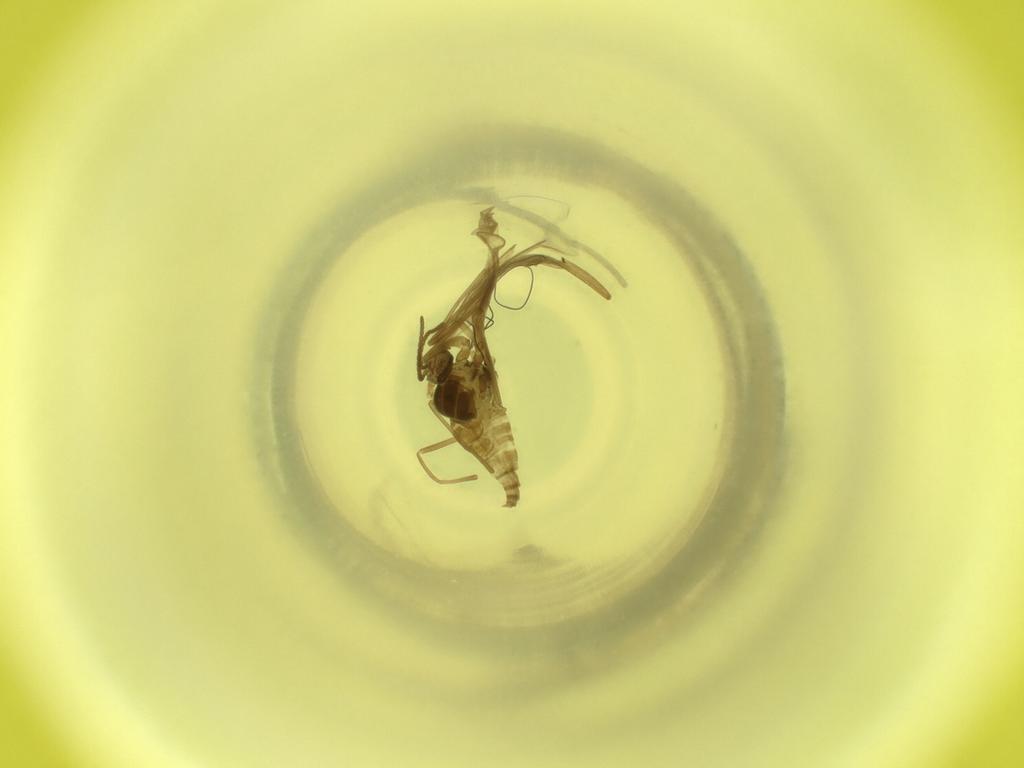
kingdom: Animalia
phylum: Arthropoda
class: Insecta
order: Diptera
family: Cecidomyiidae
